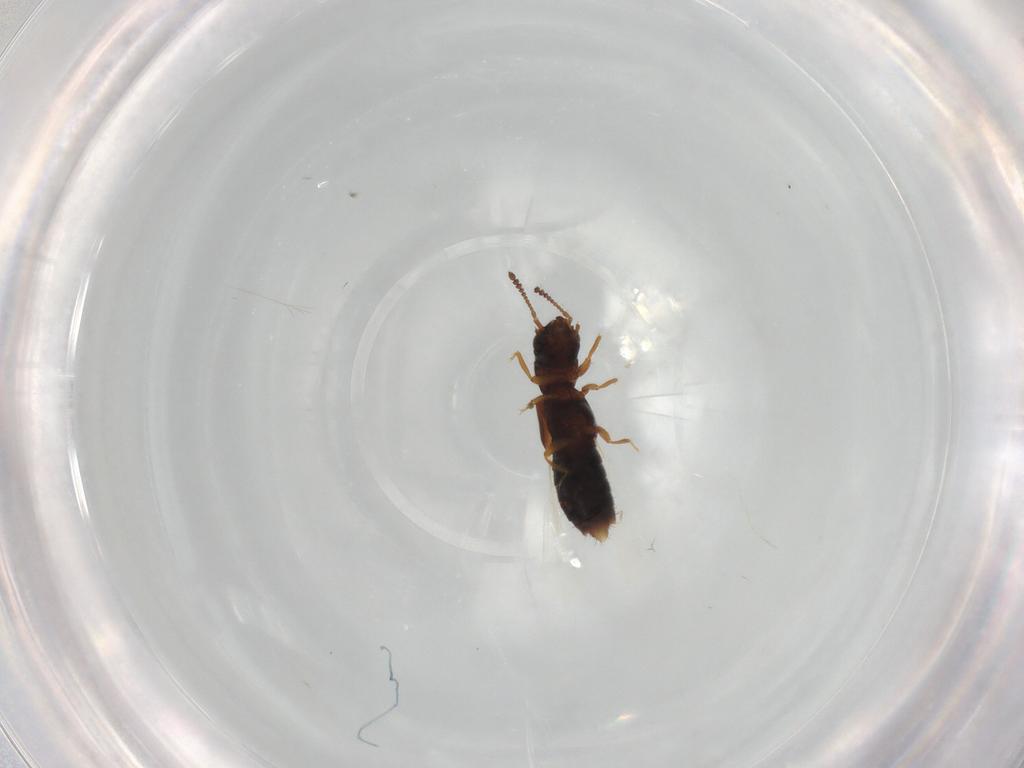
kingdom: Animalia
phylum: Arthropoda
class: Insecta
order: Coleoptera
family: Staphylinidae
